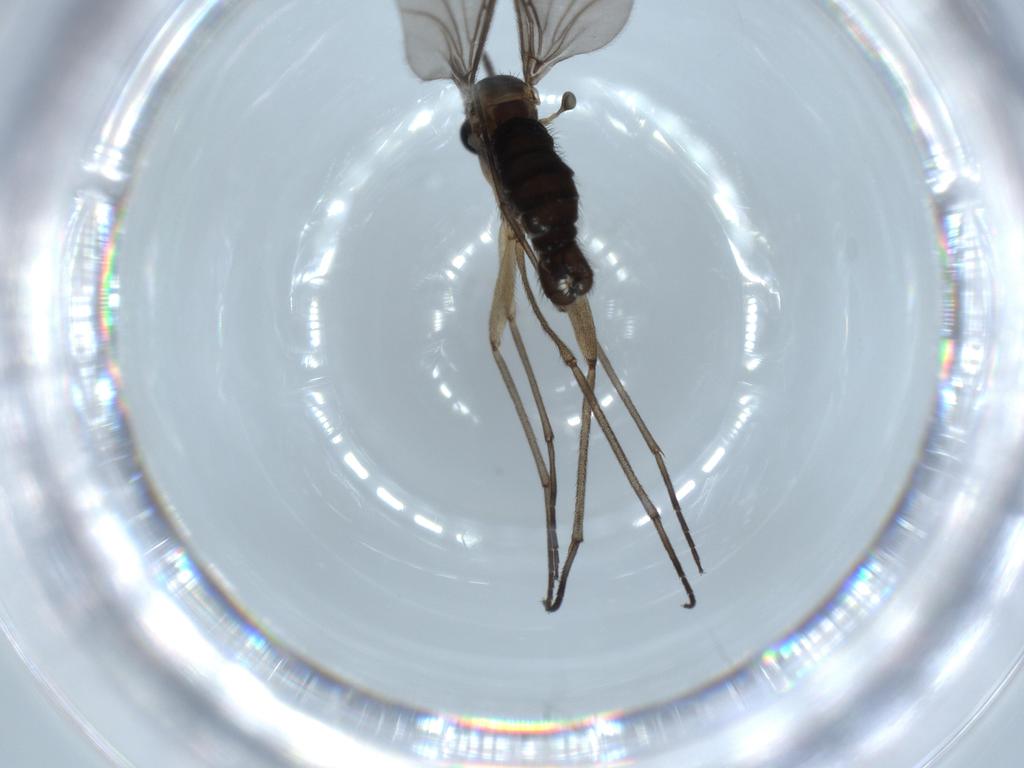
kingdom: Animalia
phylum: Arthropoda
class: Insecta
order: Diptera
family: Sciaridae
